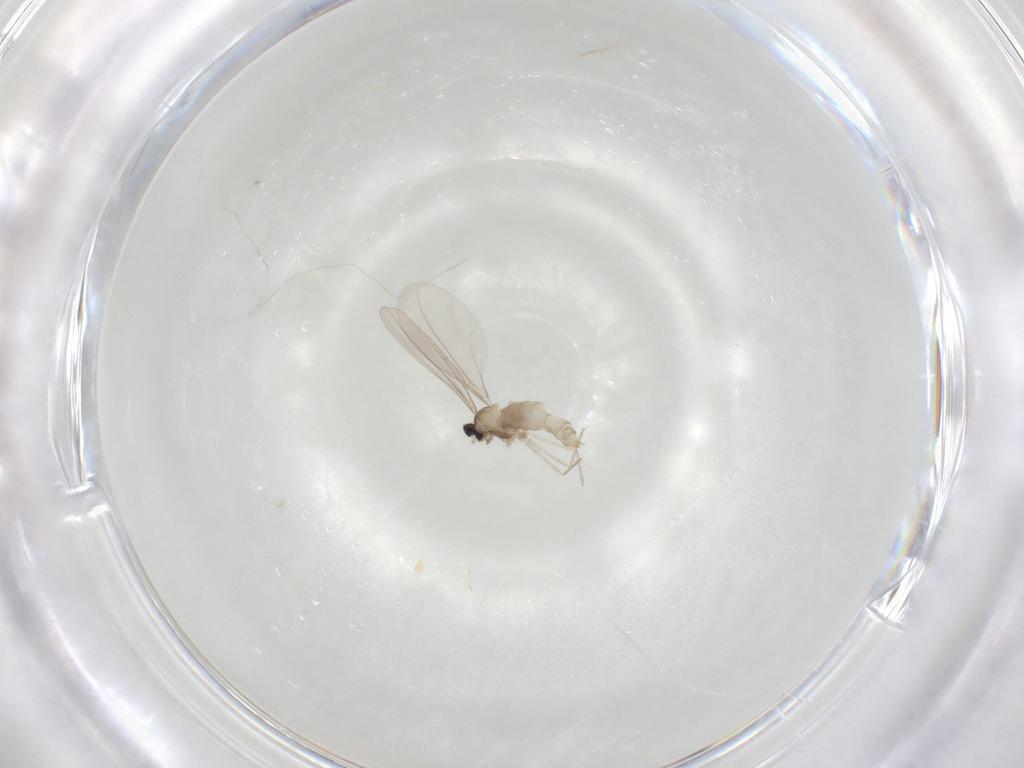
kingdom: Animalia
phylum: Arthropoda
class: Insecta
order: Diptera
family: Cecidomyiidae
